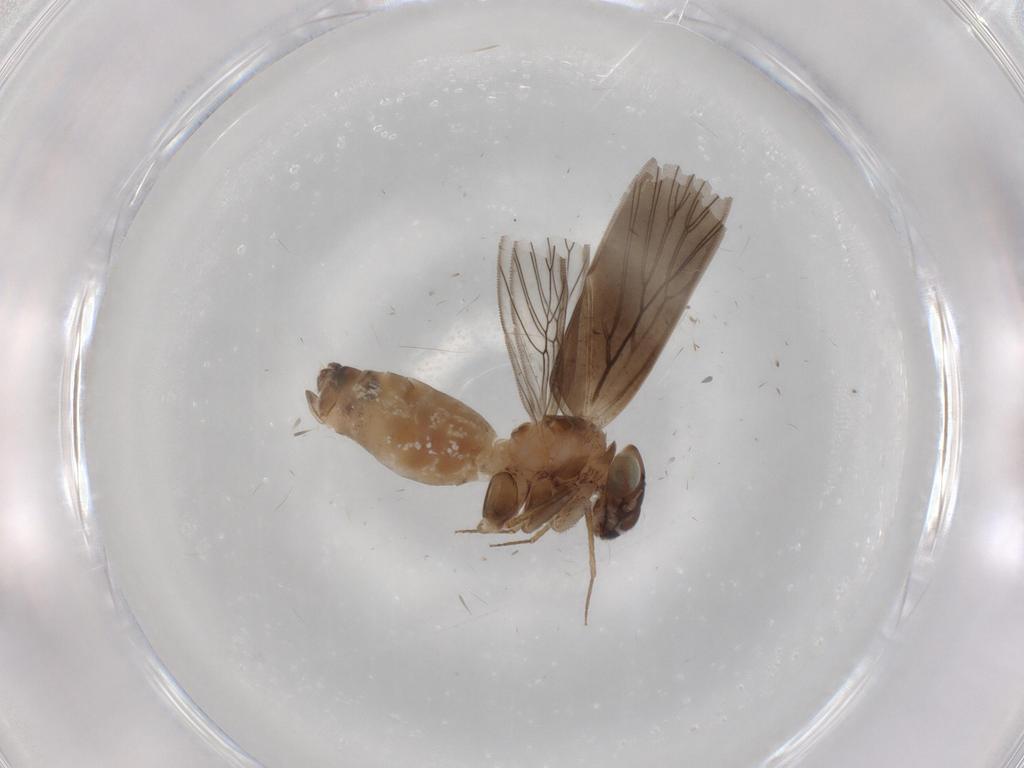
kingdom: Animalia
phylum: Arthropoda
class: Insecta
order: Psocodea
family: Lepidopsocidae
